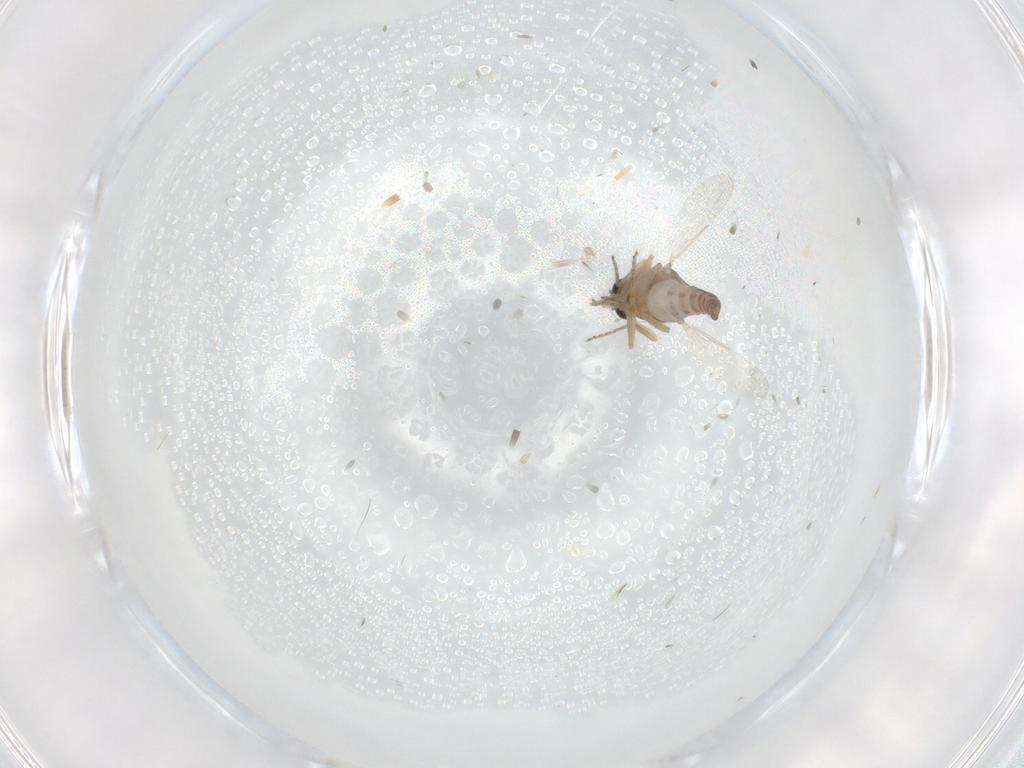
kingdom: Animalia
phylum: Arthropoda
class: Insecta
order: Diptera
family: Ceratopogonidae
